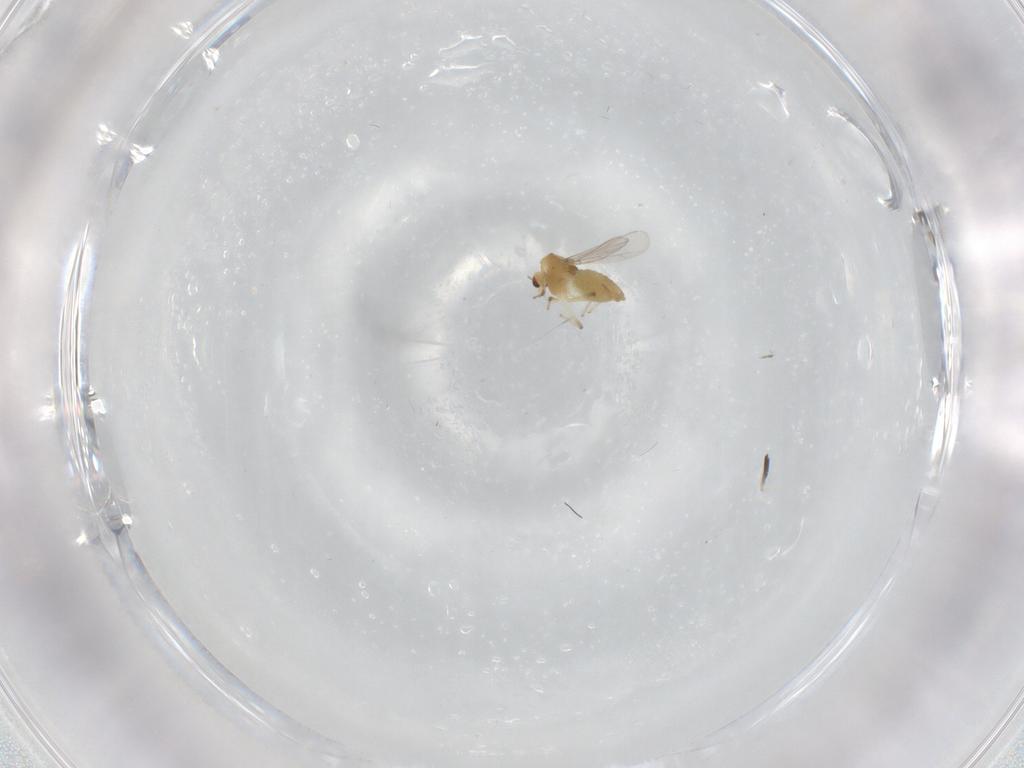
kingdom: Animalia
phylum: Arthropoda
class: Insecta
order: Diptera
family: Chironomidae
